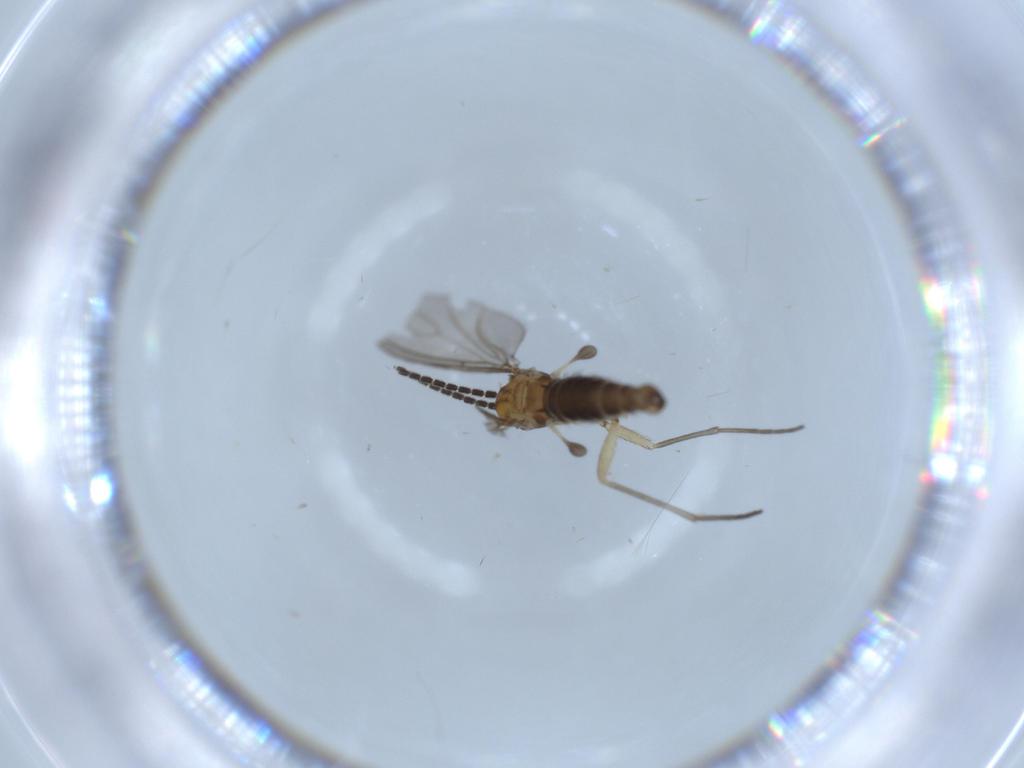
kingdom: Animalia
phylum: Arthropoda
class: Insecta
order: Diptera
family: Sciaridae
